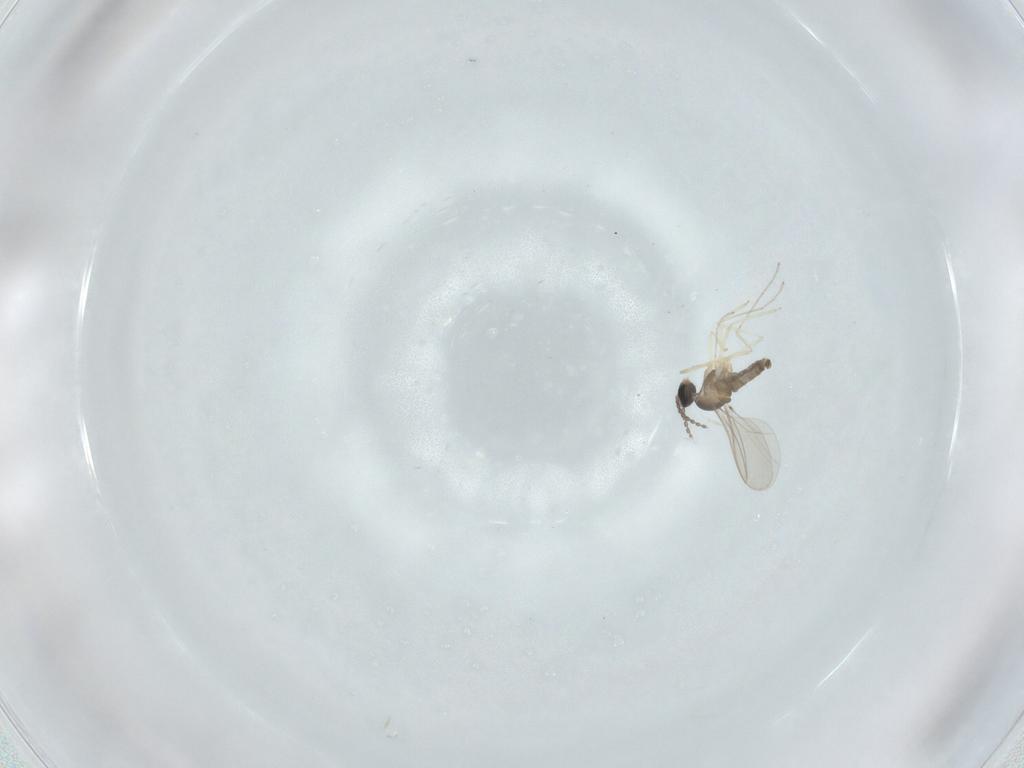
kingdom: Animalia
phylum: Arthropoda
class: Insecta
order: Diptera
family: Cecidomyiidae
